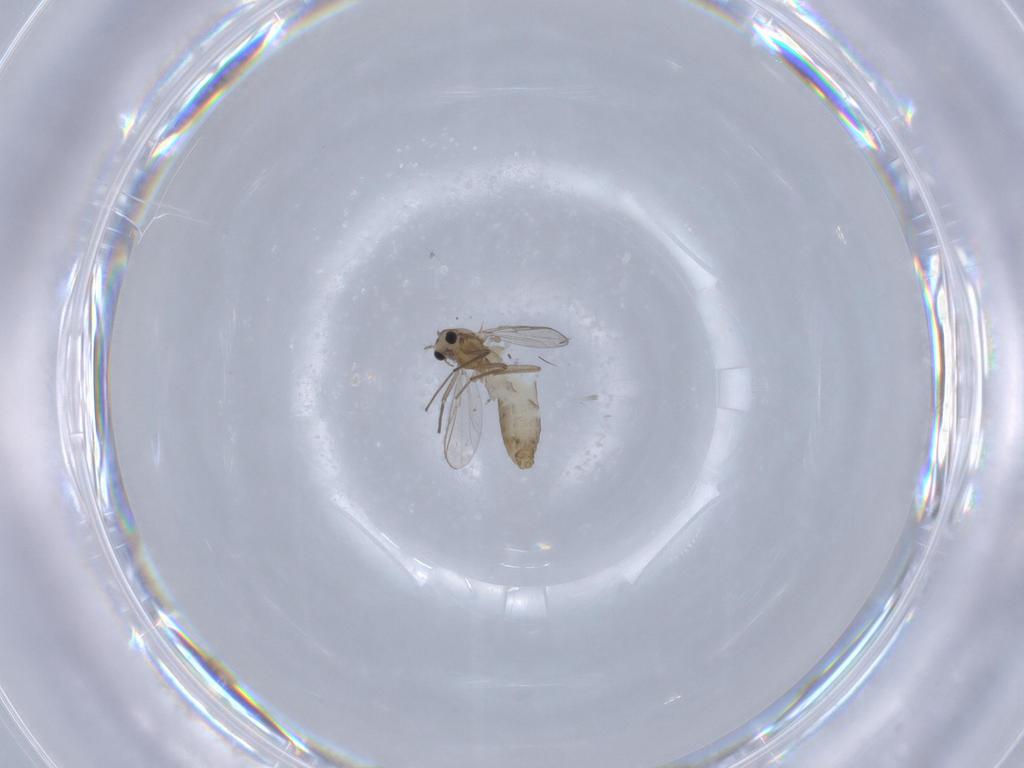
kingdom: Animalia
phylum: Arthropoda
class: Insecta
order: Diptera
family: Chironomidae
